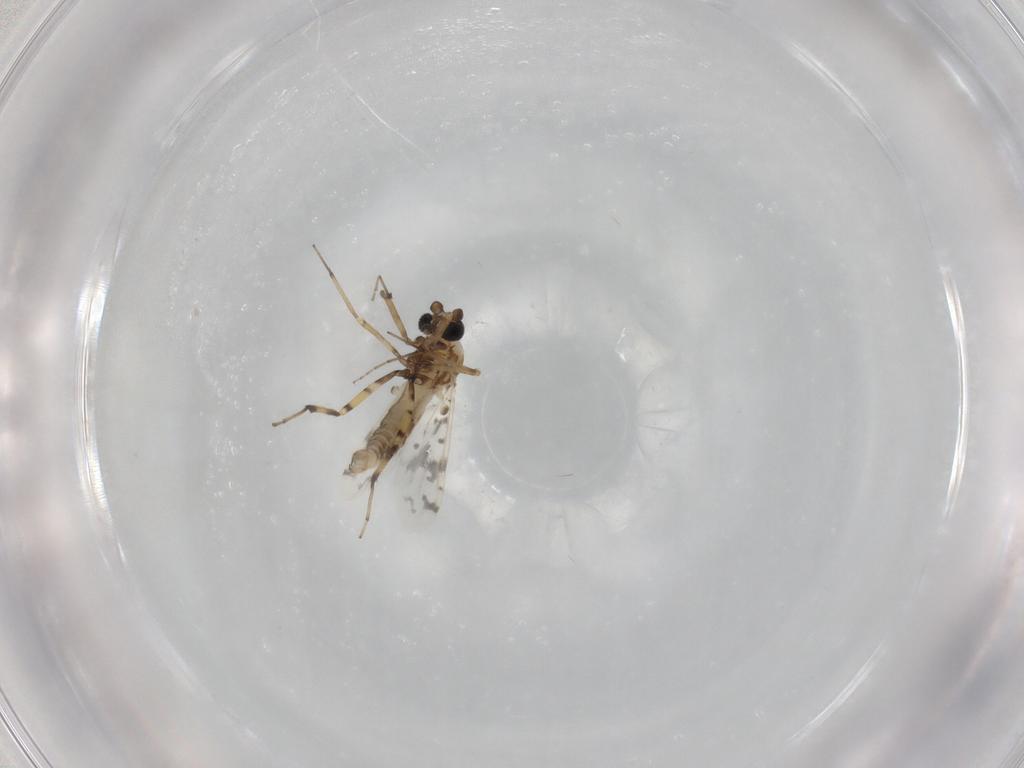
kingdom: Animalia
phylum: Arthropoda
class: Insecta
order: Diptera
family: Ceratopogonidae
